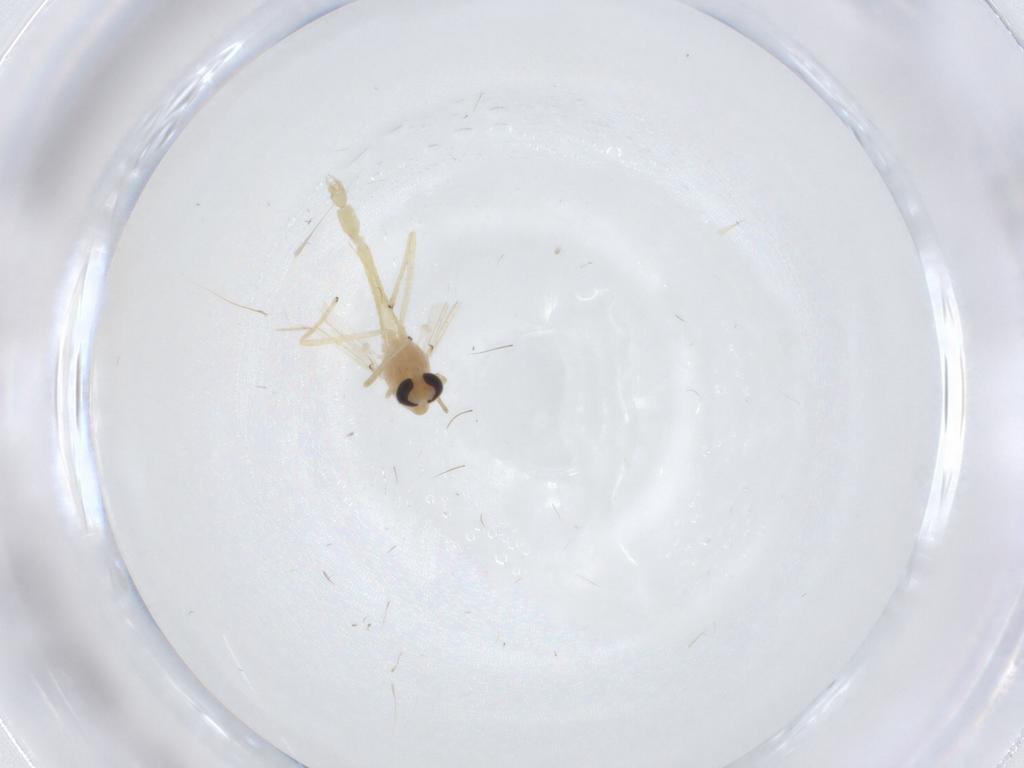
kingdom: Animalia
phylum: Arthropoda
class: Insecta
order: Diptera
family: Chironomidae
